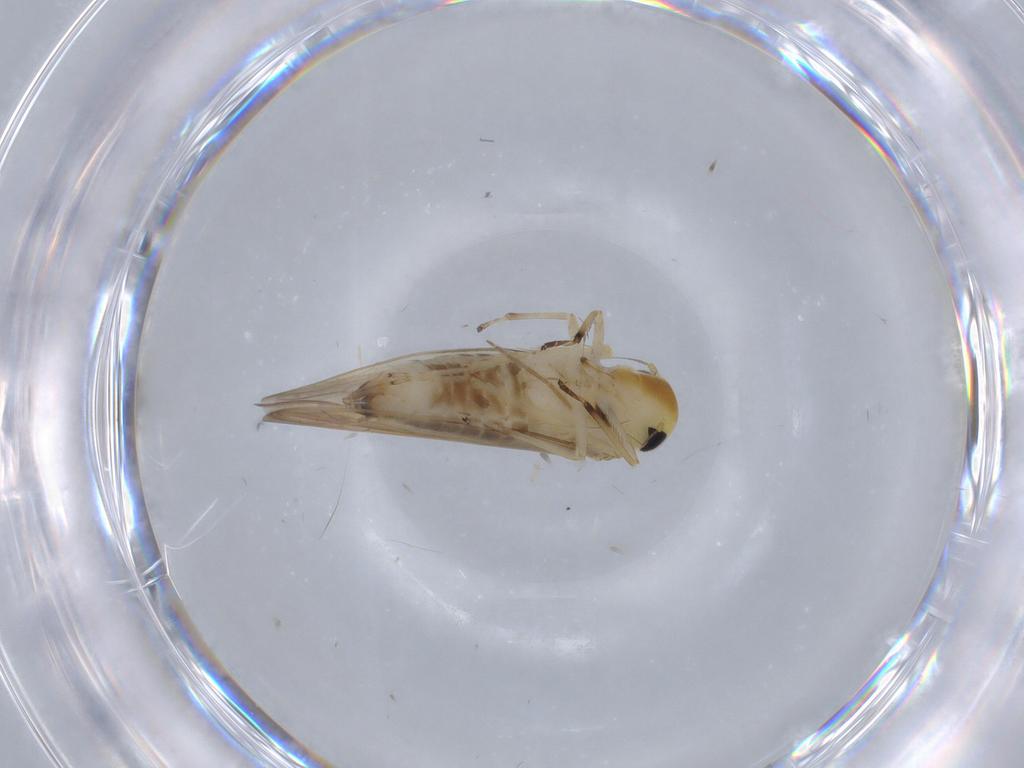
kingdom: Animalia
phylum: Arthropoda
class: Insecta
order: Hemiptera
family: Cicadellidae
